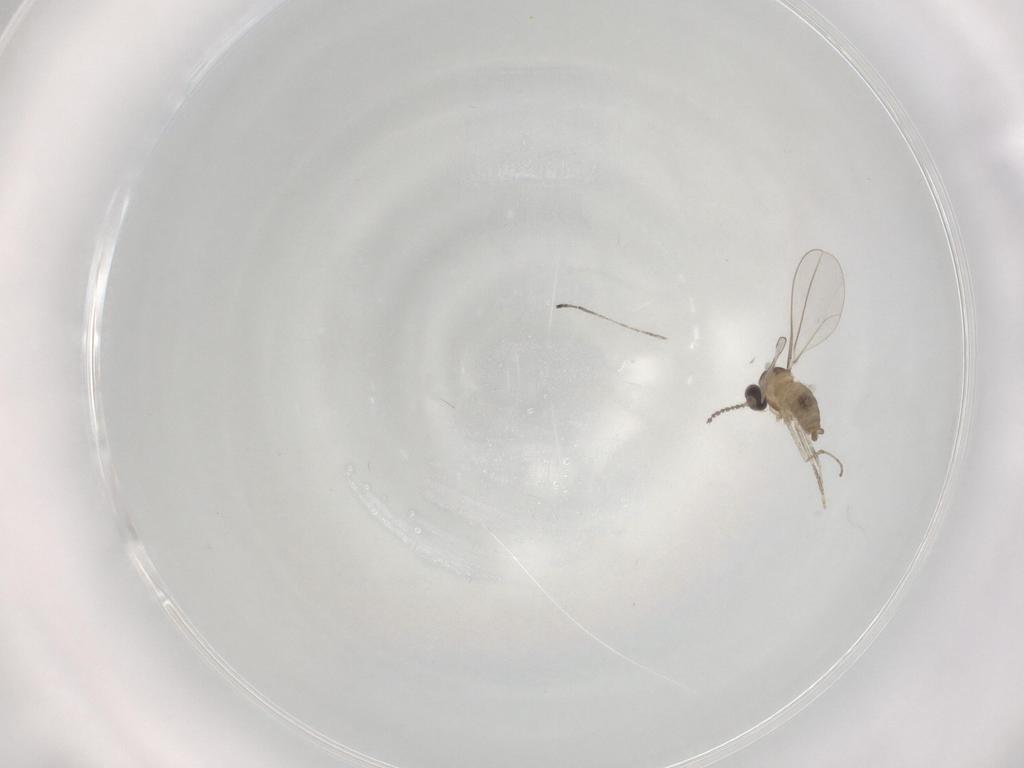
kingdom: Animalia
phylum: Arthropoda
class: Insecta
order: Diptera
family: Cecidomyiidae
